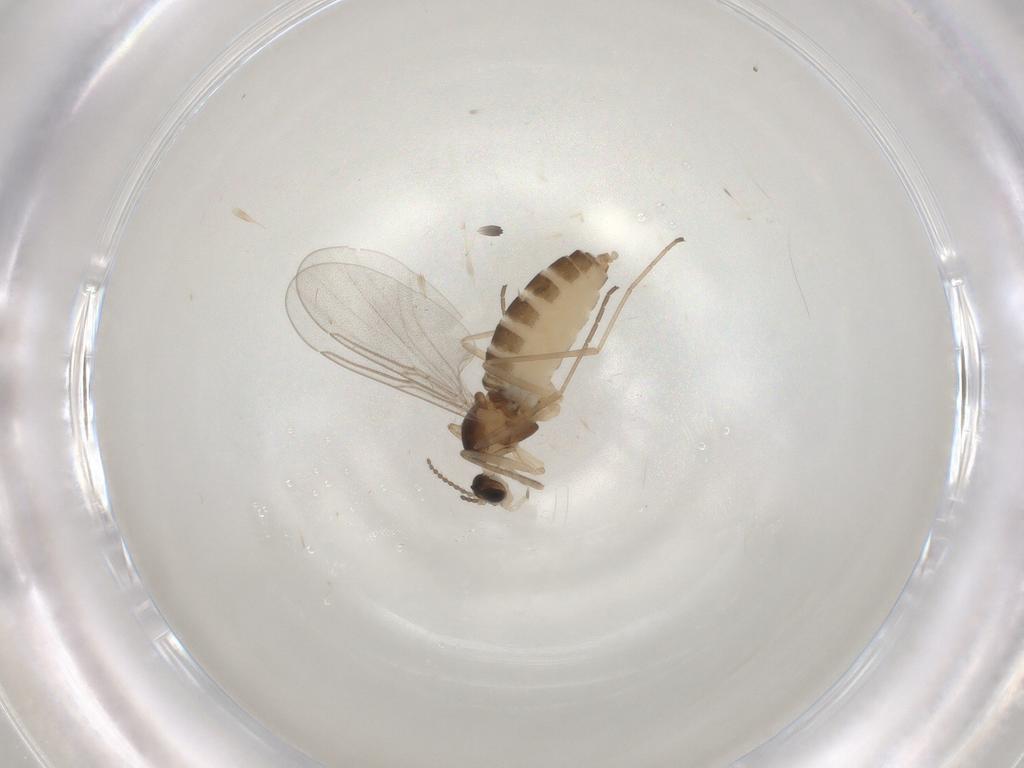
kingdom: Animalia
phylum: Arthropoda
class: Insecta
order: Diptera
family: Cecidomyiidae
